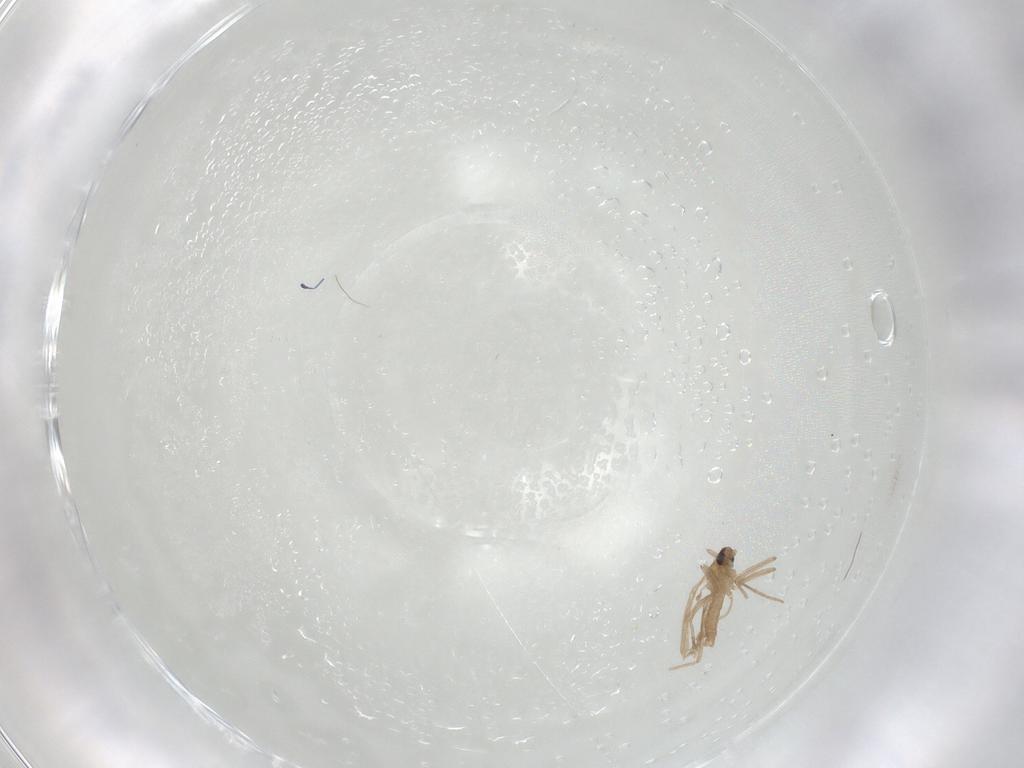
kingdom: Animalia
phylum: Arthropoda
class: Insecta
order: Diptera
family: Cecidomyiidae
